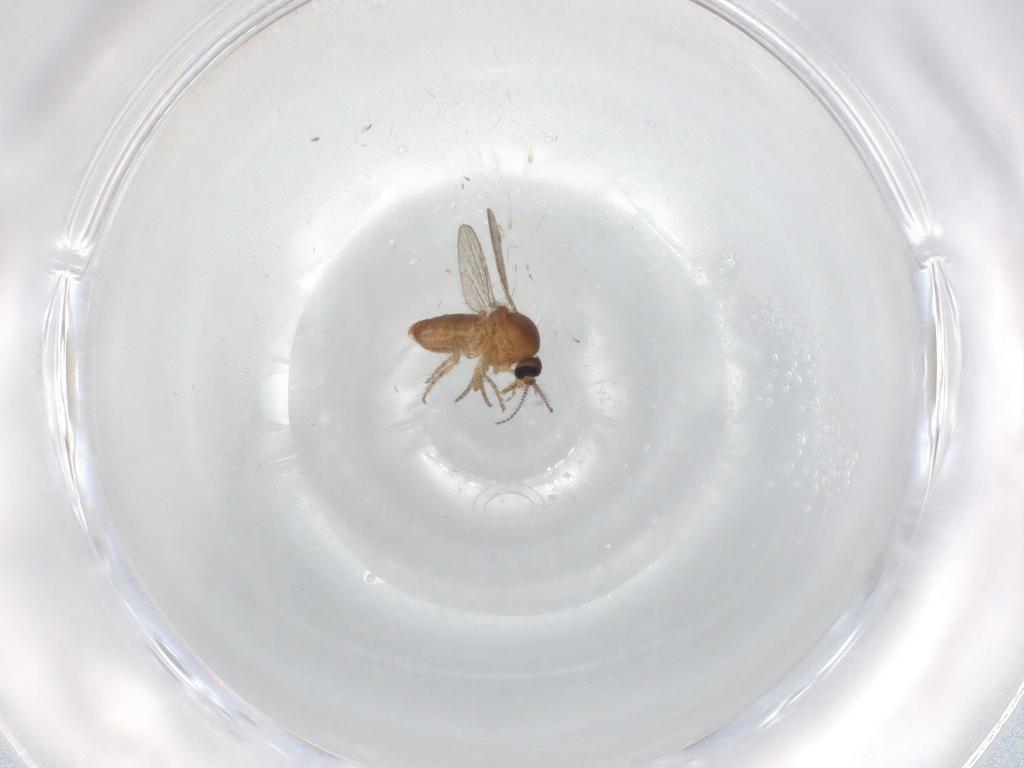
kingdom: Animalia
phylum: Arthropoda
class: Insecta
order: Diptera
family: Ceratopogonidae
